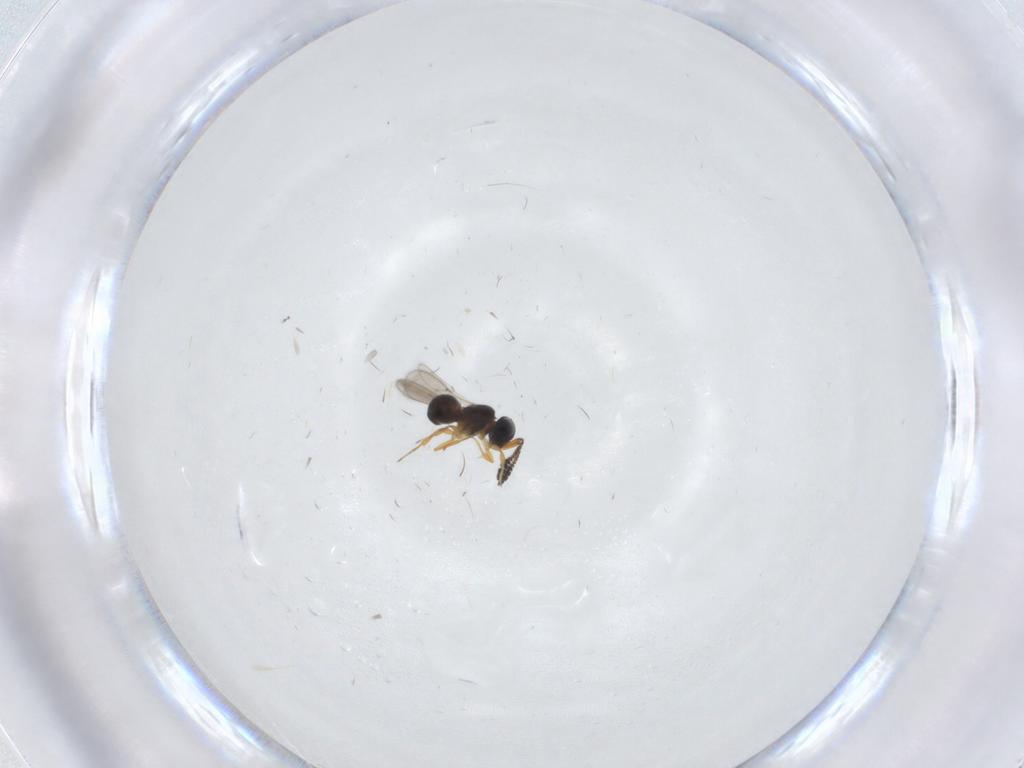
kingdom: Animalia
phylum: Arthropoda
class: Insecta
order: Hymenoptera
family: Scelionidae
